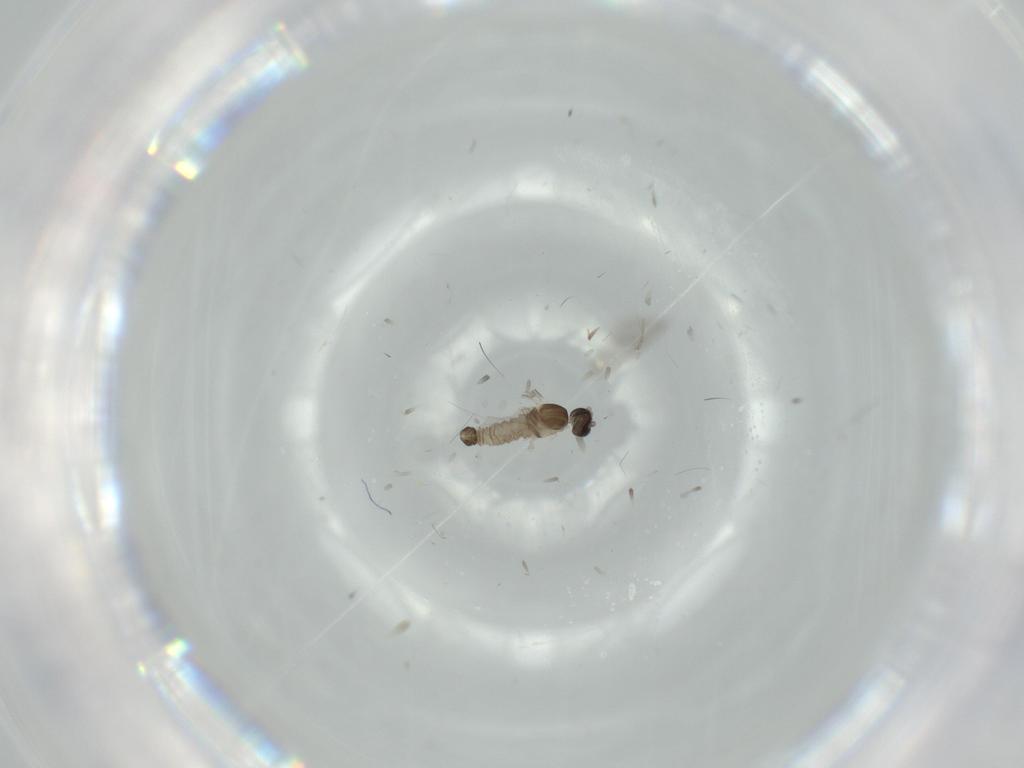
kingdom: Animalia
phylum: Arthropoda
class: Insecta
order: Diptera
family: Cecidomyiidae
